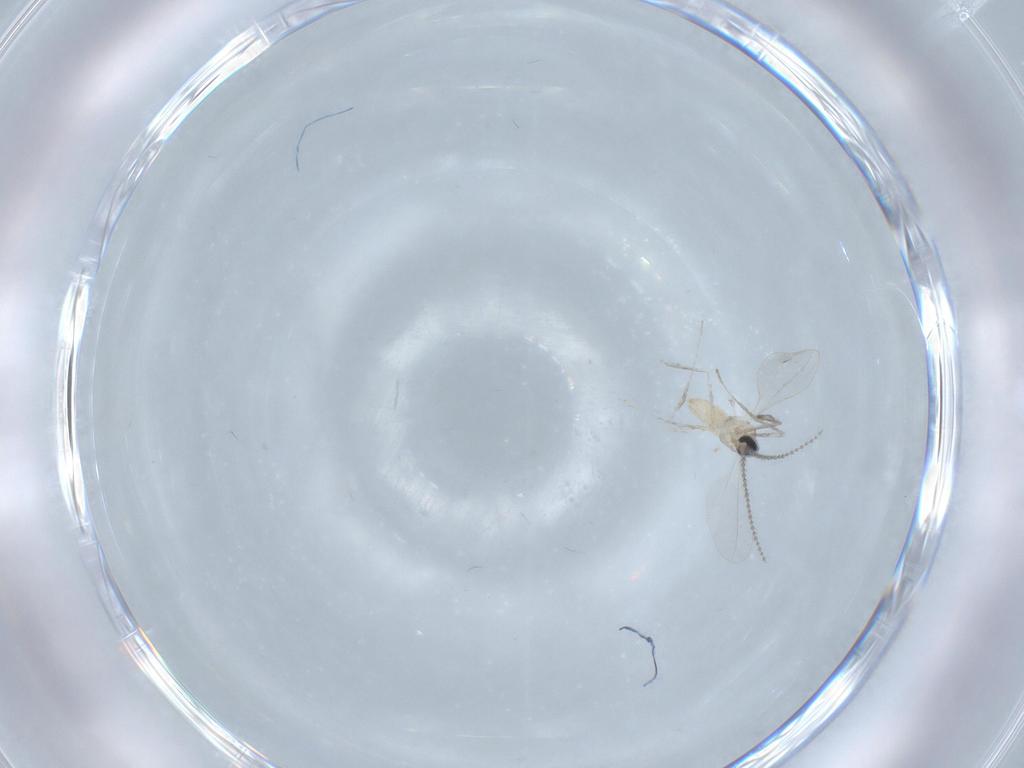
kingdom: Animalia
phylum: Arthropoda
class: Insecta
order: Diptera
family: Cecidomyiidae
